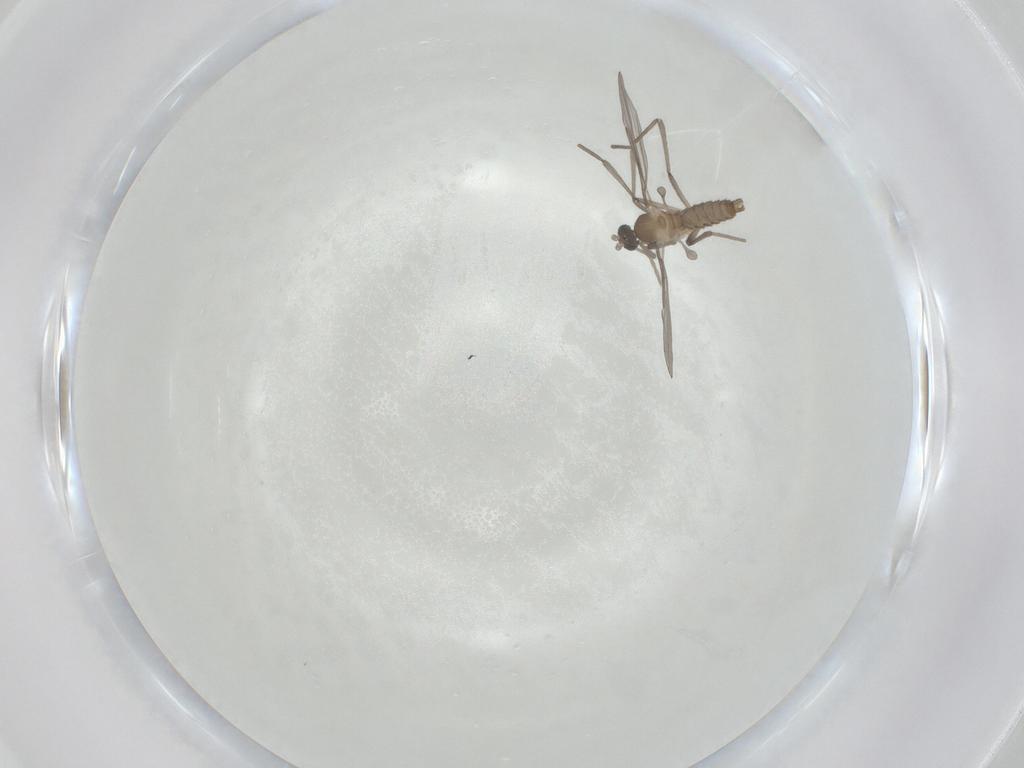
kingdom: Animalia
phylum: Arthropoda
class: Insecta
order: Diptera
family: Cecidomyiidae
